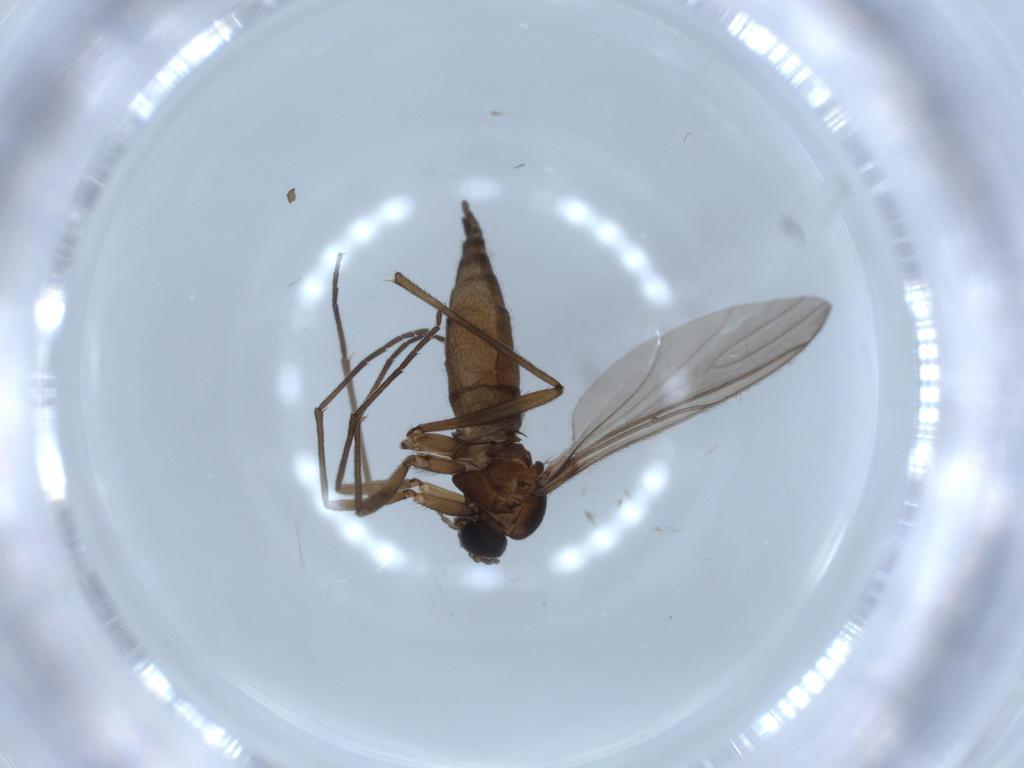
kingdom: Animalia
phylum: Arthropoda
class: Insecta
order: Diptera
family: Sciaridae
